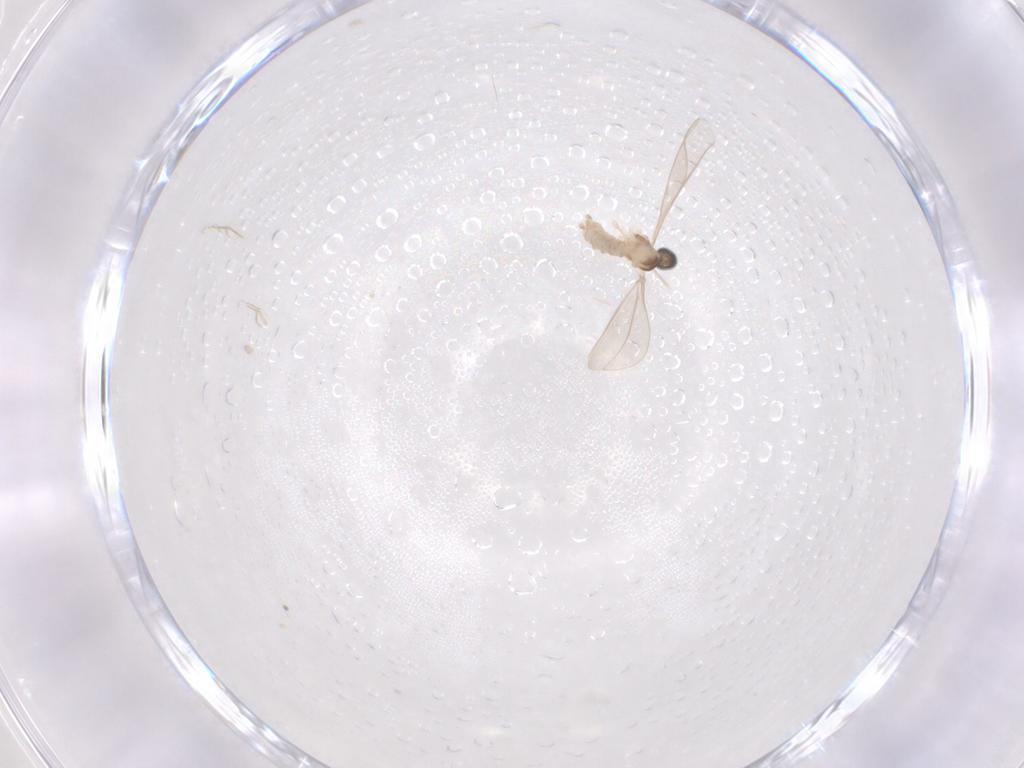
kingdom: Animalia
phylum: Arthropoda
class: Insecta
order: Diptera
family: Cecidomyiidae
